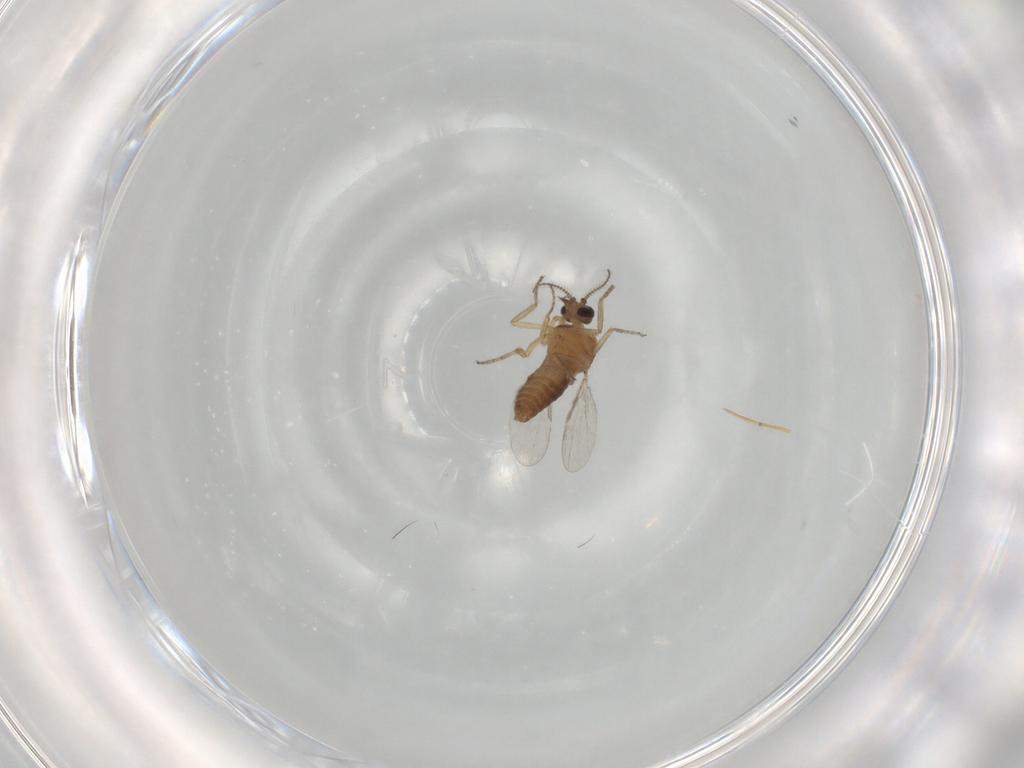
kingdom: Animalia
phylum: Arthropoda
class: Insecta
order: Diptera
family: Ceratopogonidae
